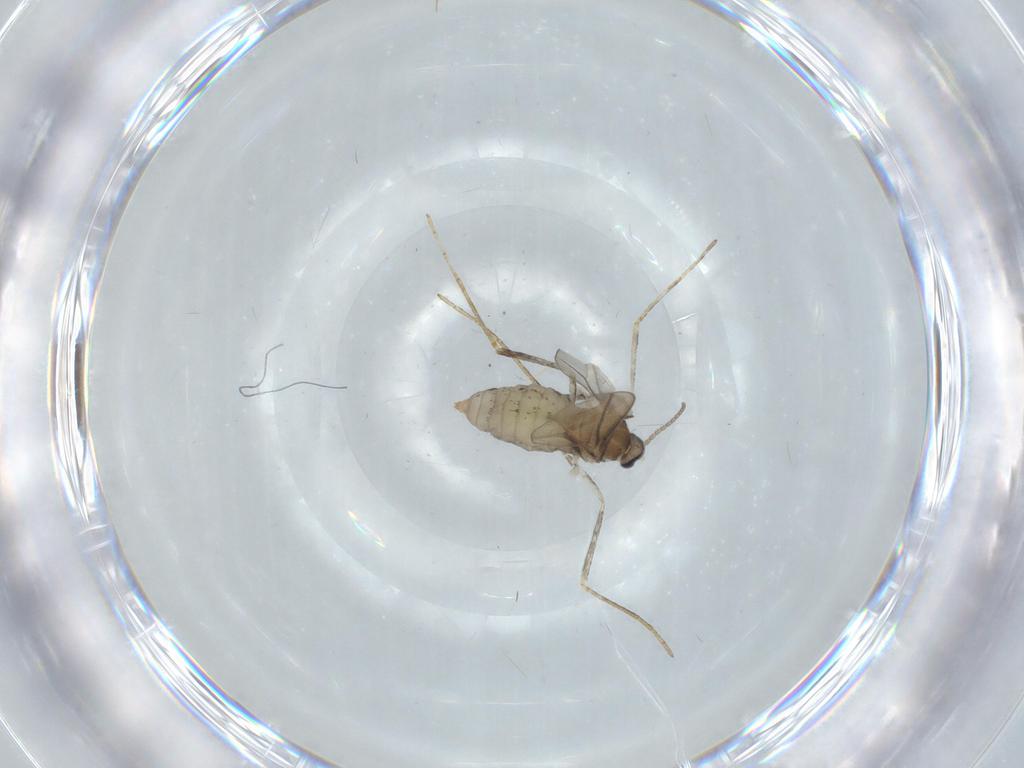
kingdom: Animalia
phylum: Arthropoda
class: Insecta
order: Diptera
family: Cecidomyiidae
